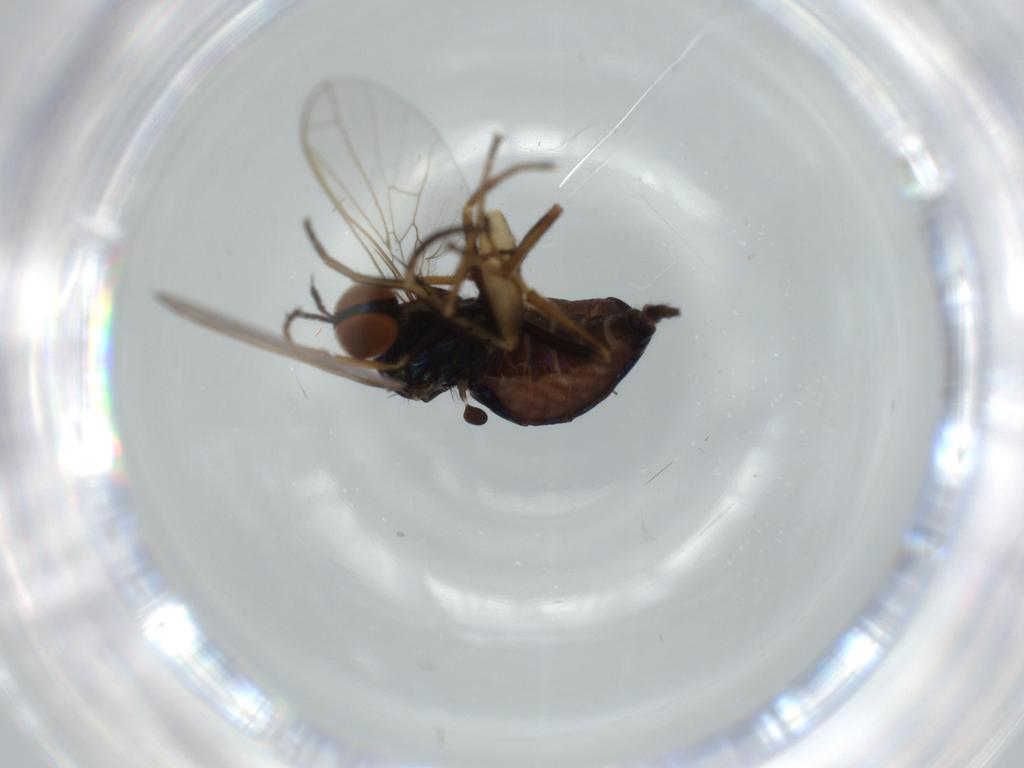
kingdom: Animalia
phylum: Arthropoda
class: Insecta
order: Diptera
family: Empididae
